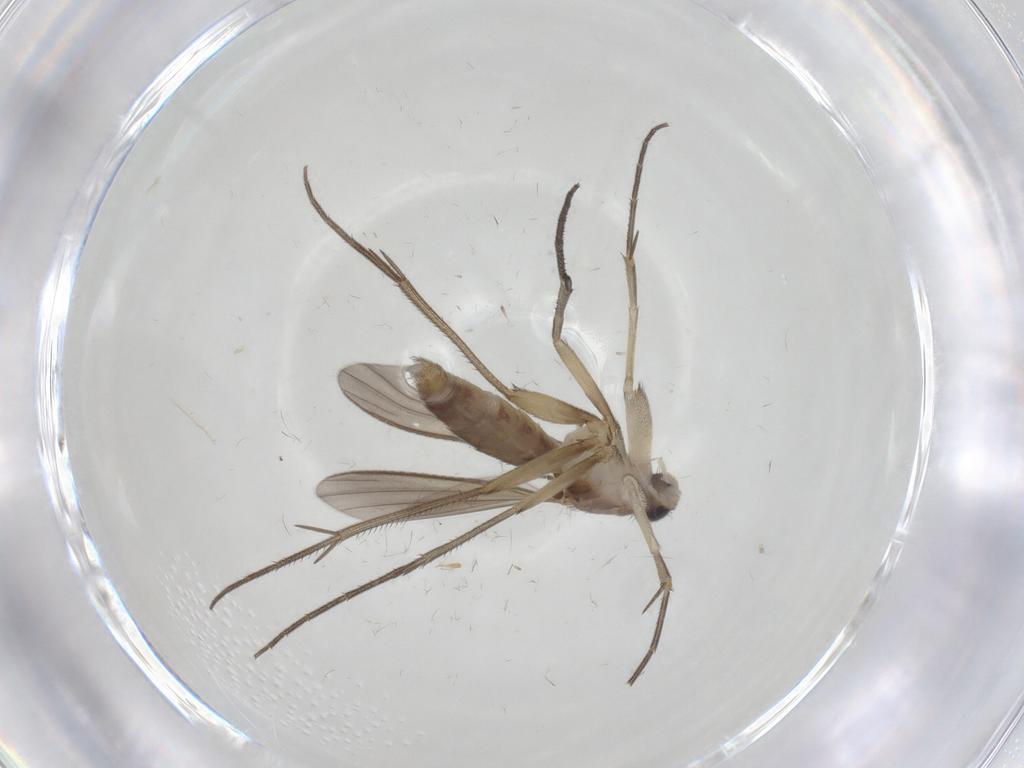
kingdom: Animalia
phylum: Arthropoda
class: Insecta
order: Diptera
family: Mycetophilidae
